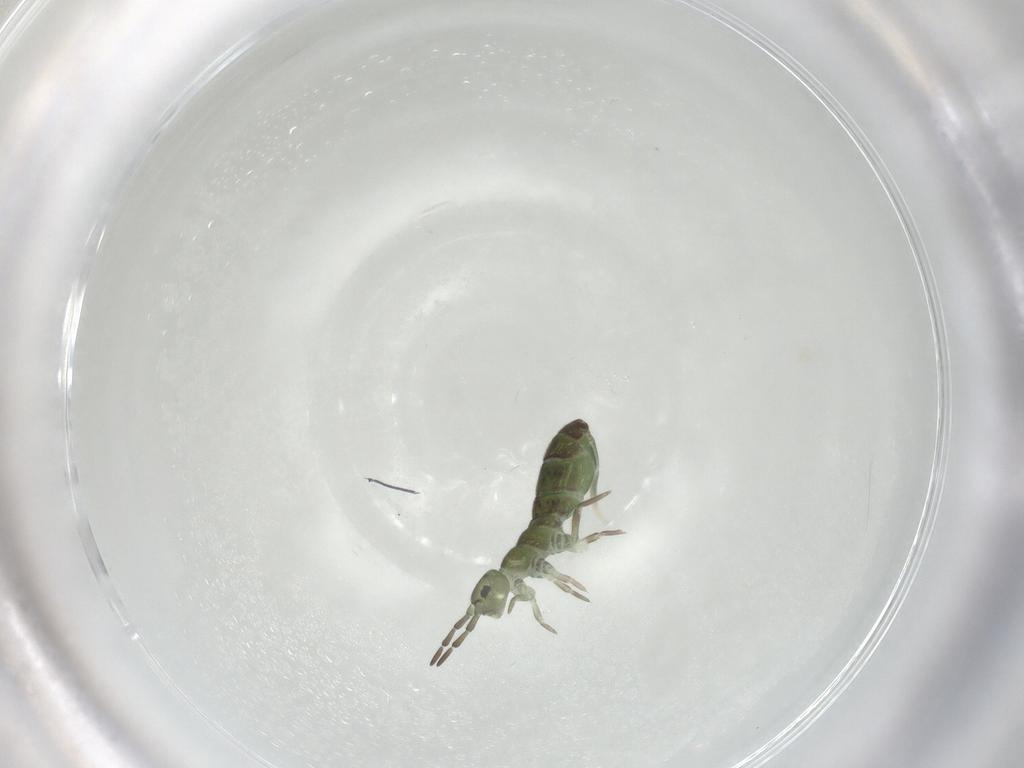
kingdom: Animalia
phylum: Arthropoda
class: Collembola
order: Entomobryomorpha
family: Isotomidae
